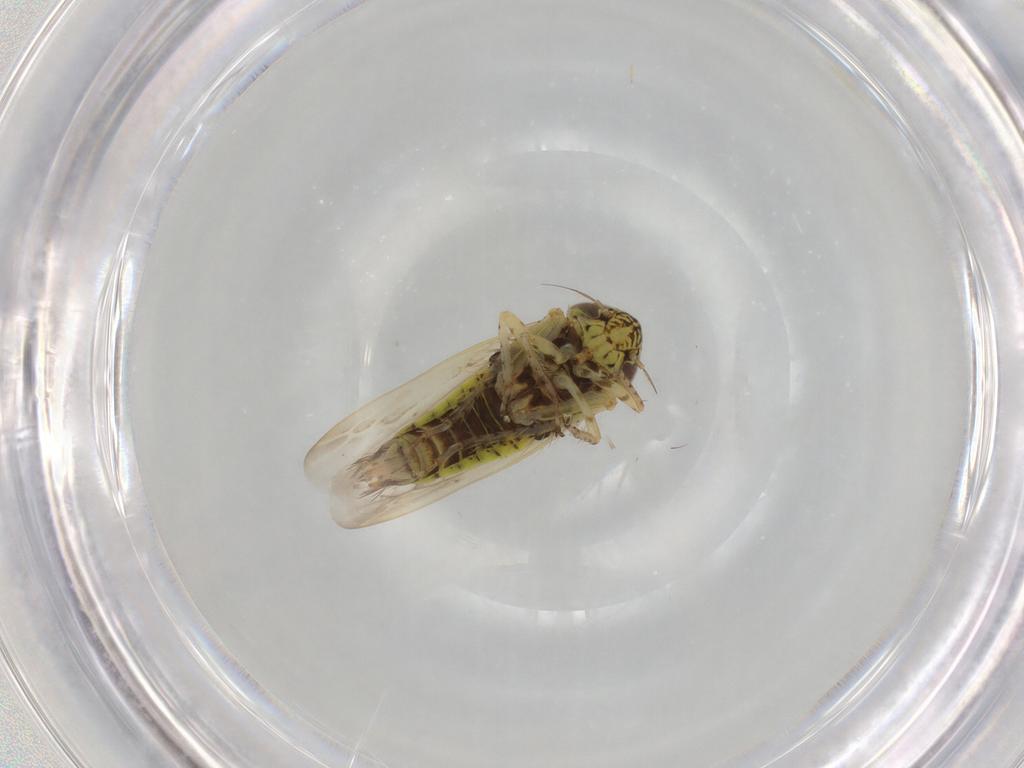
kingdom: Animalia
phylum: Arthropoda
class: Insecta
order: Hemiptera
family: Cicadellidae
